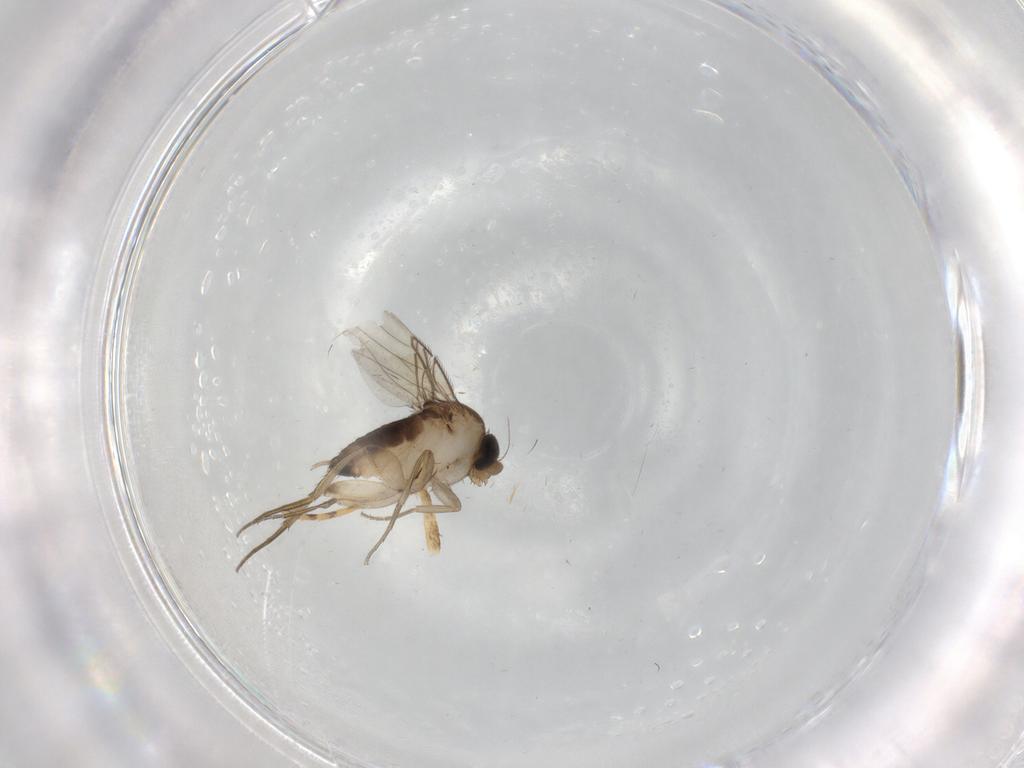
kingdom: Animalia
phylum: Arthropoda
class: Insecta
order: Diptera
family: Phoridae
